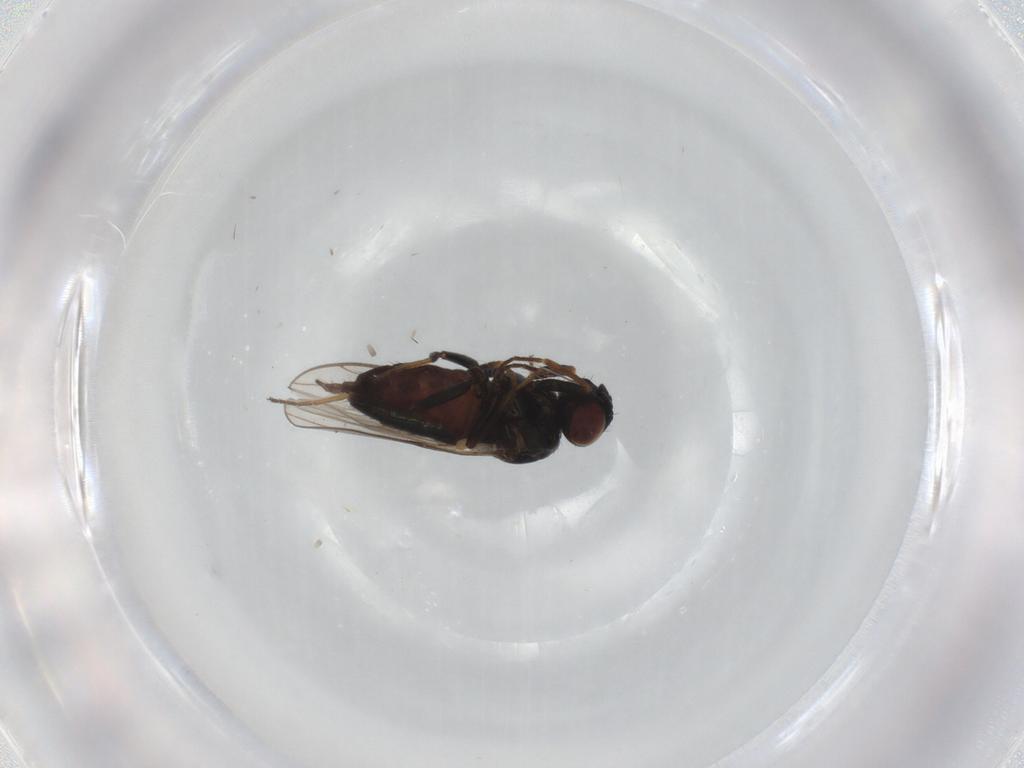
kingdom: Animalia
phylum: Arthropoda
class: Insecta
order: Diptera
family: Chloropidae
